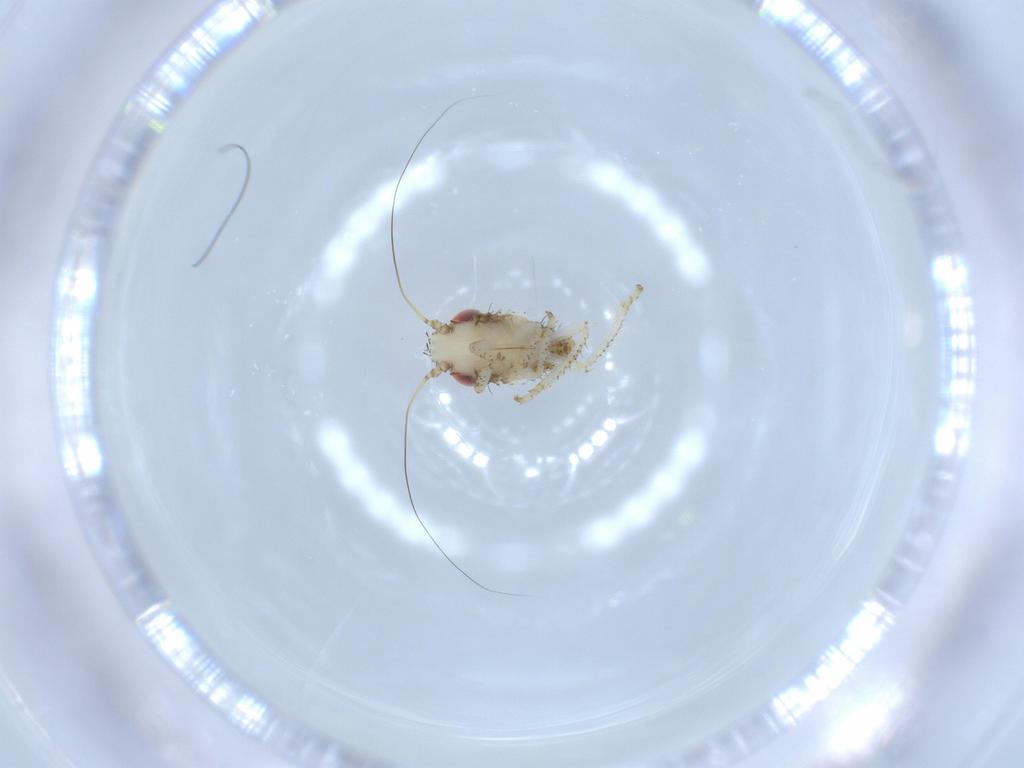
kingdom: Animalia
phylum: Arthropoda
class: Insecta
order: Hemiptera
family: Cicadellidae
